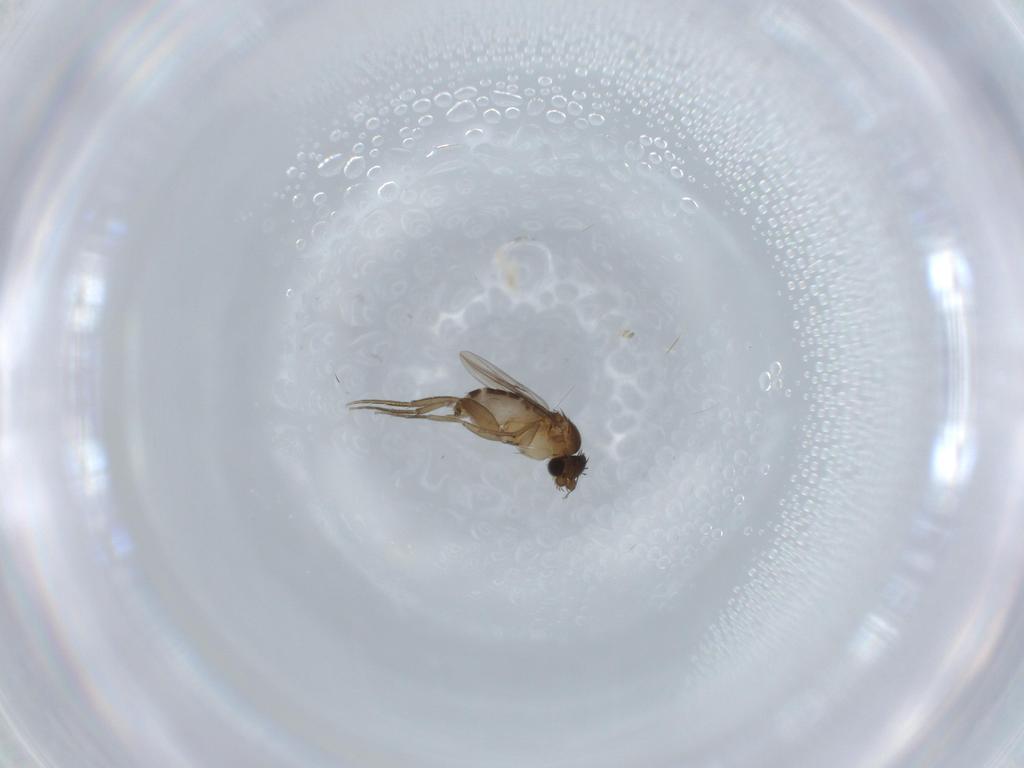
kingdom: Animalia
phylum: Arthropoda
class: Insecta
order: Diptera
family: Phoridae
